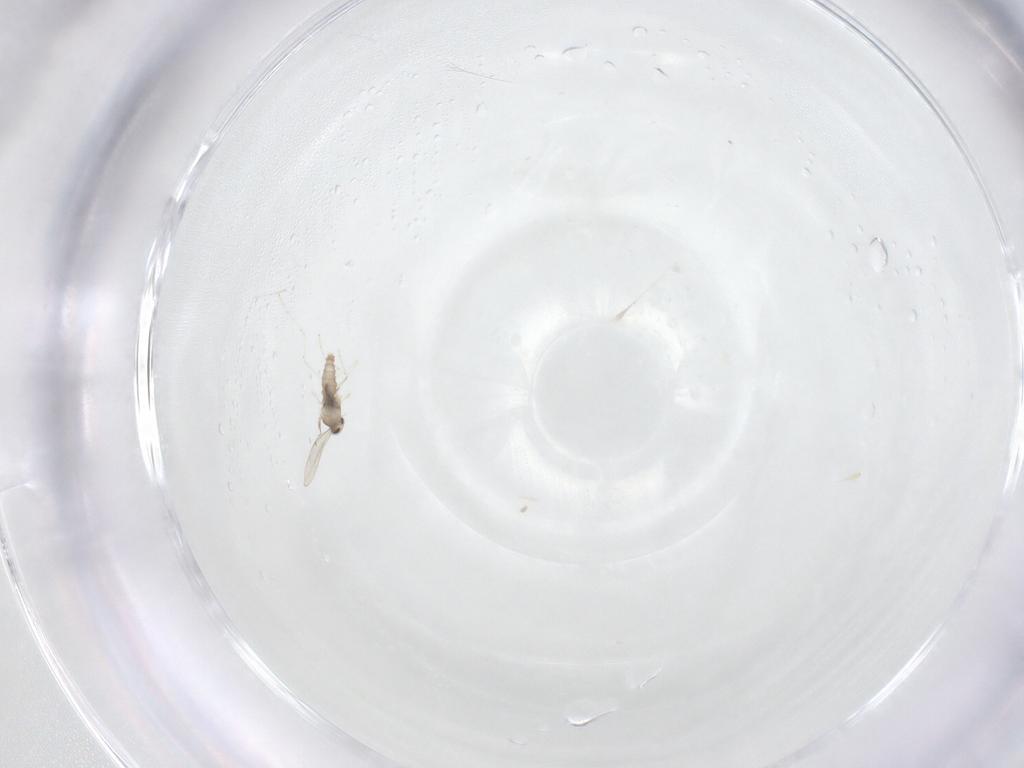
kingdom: Animalia
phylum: Arthropoda
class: Insecta
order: Diptera
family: Cecidomyiidae
